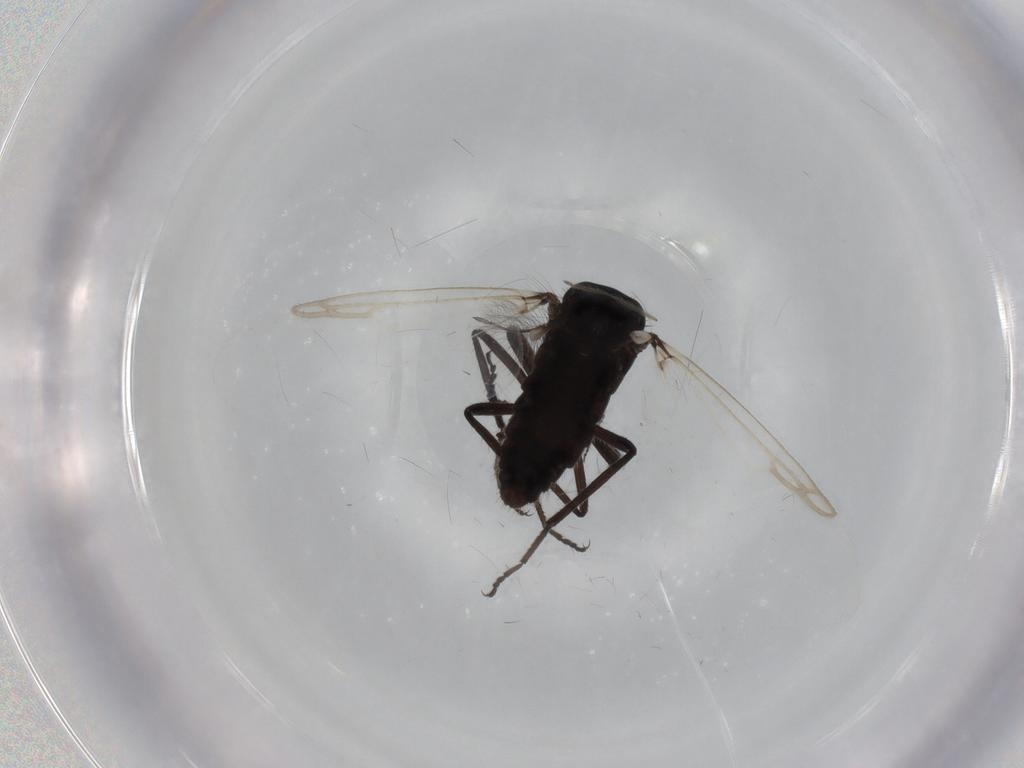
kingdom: Animalia
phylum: Arthropoda
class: Insecta
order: Diptera
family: Ceratopogonidae
